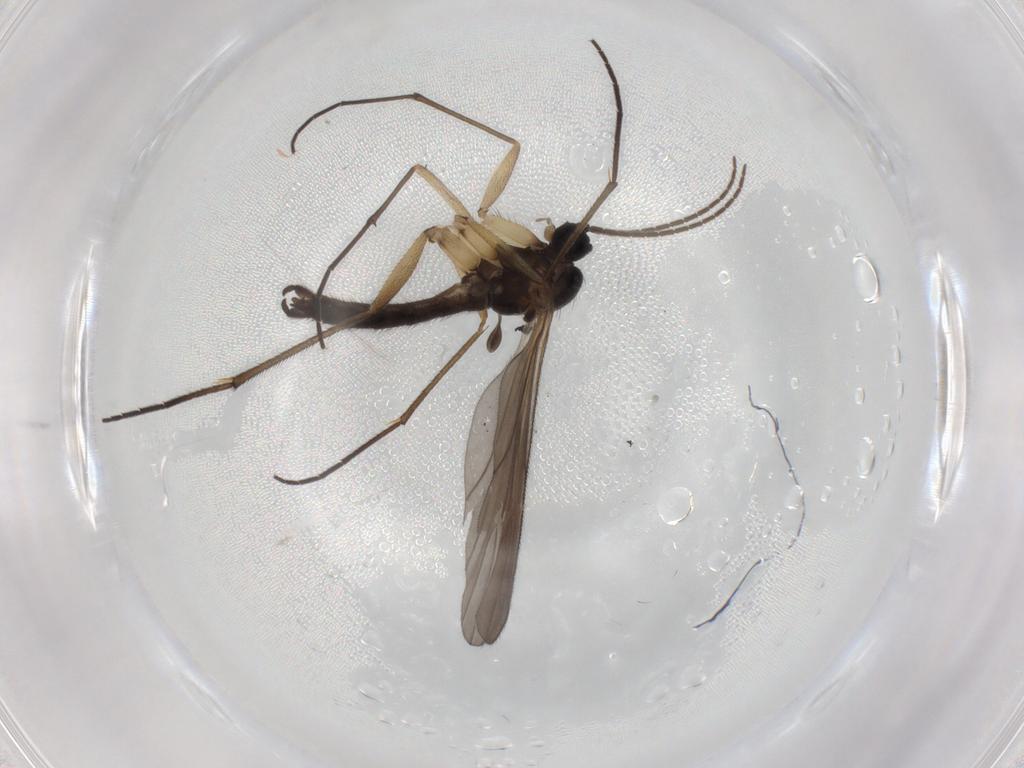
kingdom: Animalia
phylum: Arthropoda
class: Insecta
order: Diptera
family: Sciaridae
